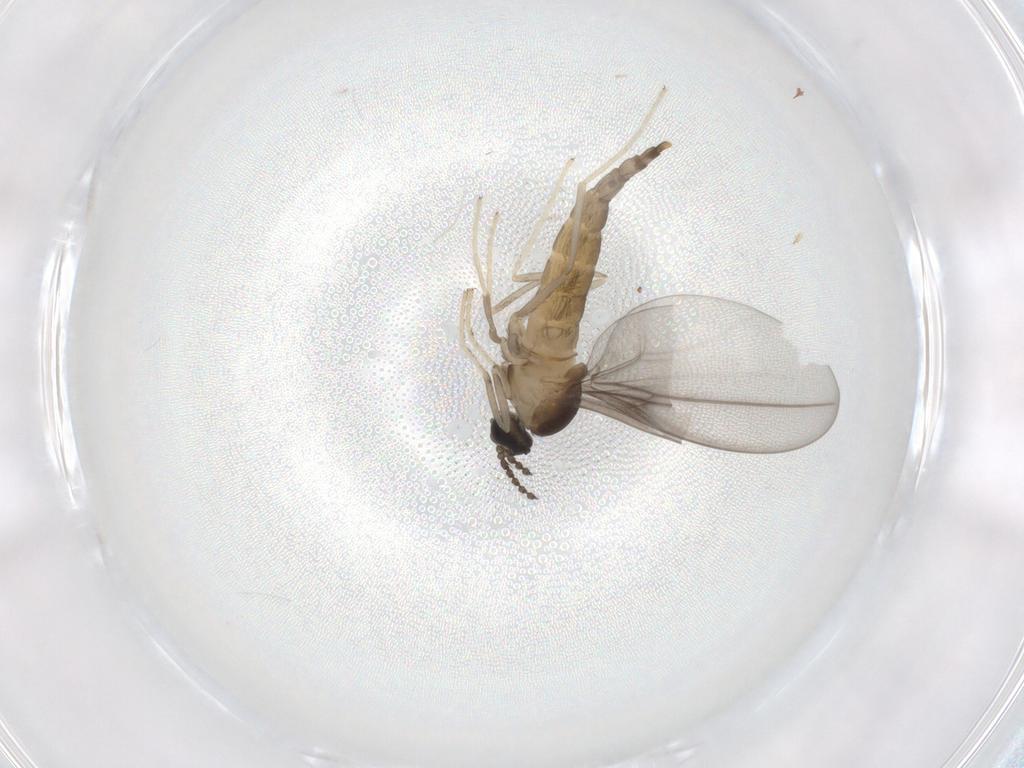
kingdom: Animalia
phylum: Arthropoda
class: Insecta
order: Diptera
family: Cecidomyiidae
